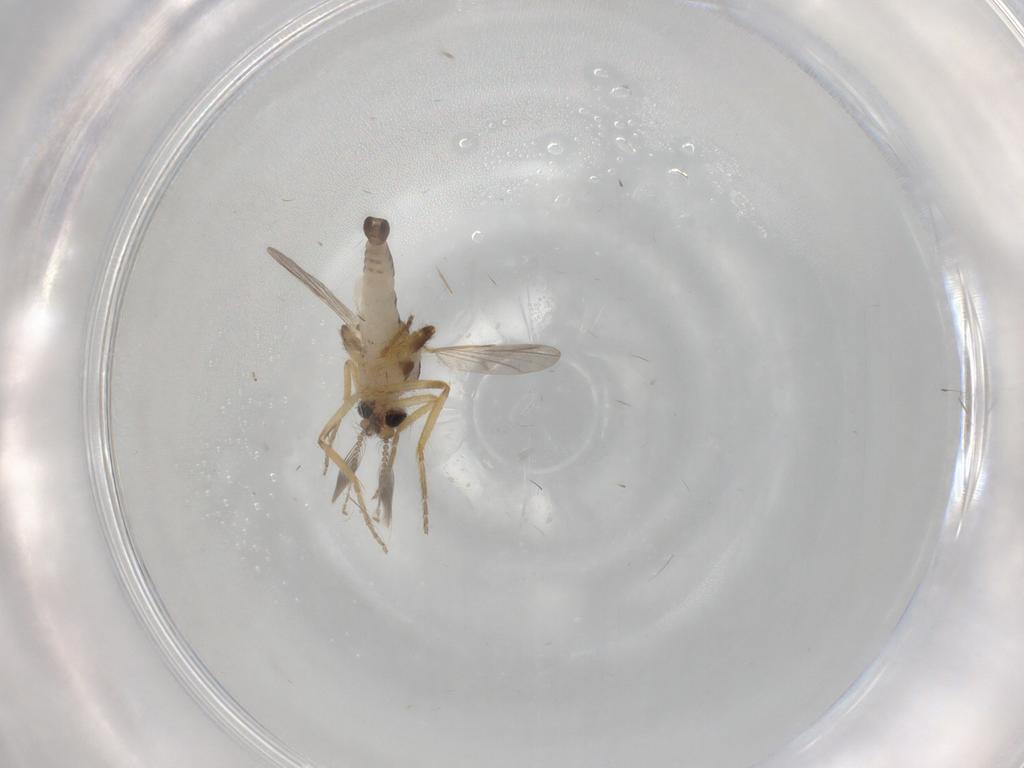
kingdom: Animalia
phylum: Arthropoda
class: Insecta
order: Diptera
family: Ceratopogonidae
